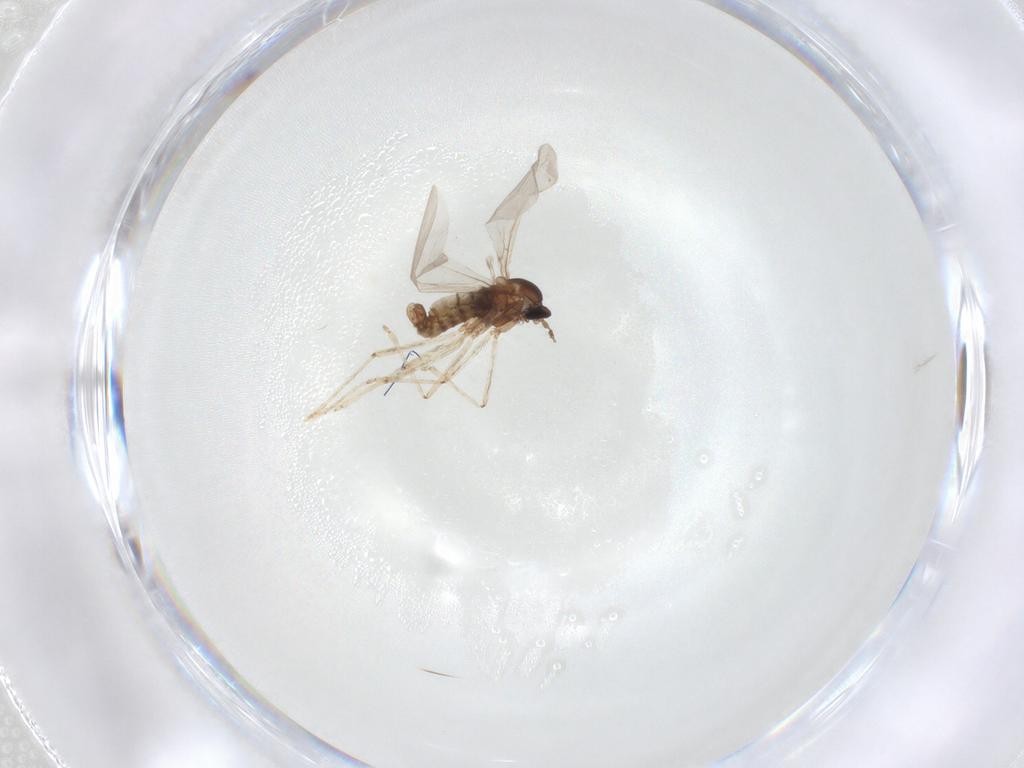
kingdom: Animalia
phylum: Arthropoda
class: Insecta
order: Diptera
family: Cecidomyiidae
